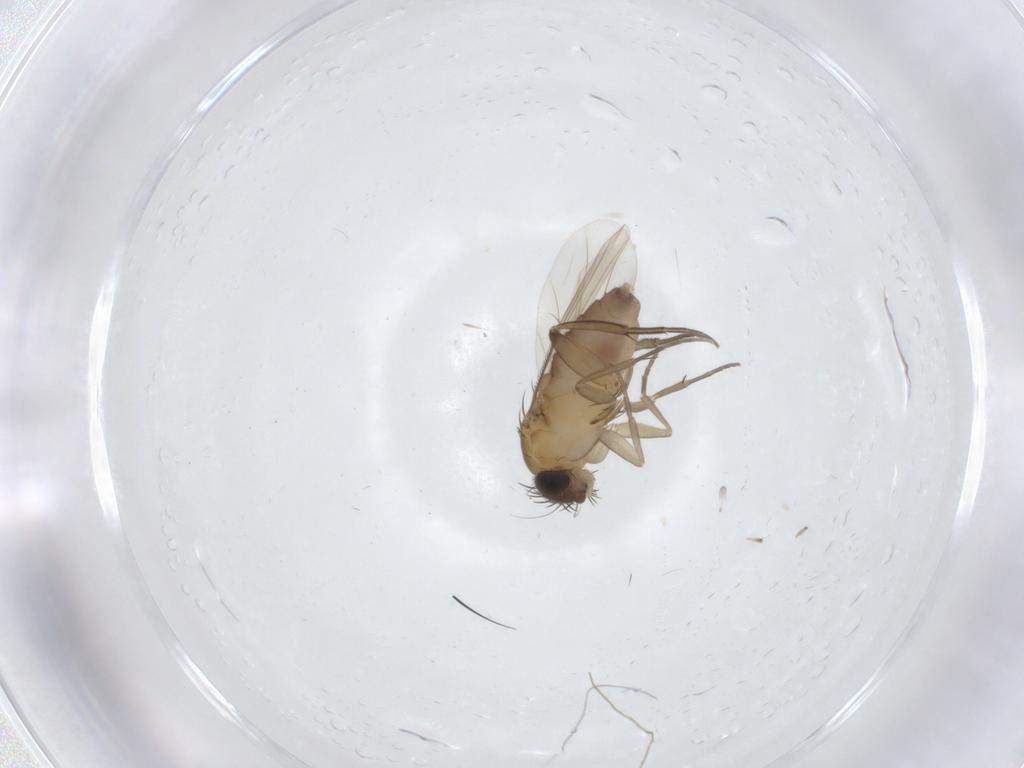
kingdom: Animalia
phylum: Arthropoda
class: Insecta
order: Diptera
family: Phoridae
